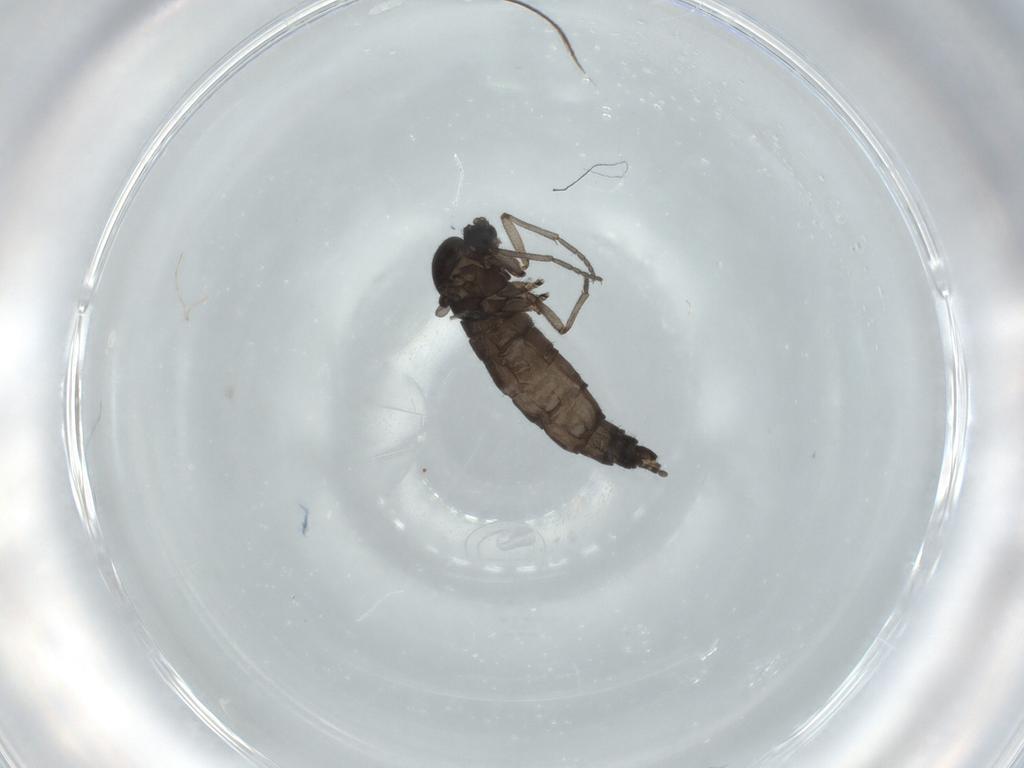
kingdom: Animalia
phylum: Arthropoda
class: Insecta
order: Diptera
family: Sciaridae
